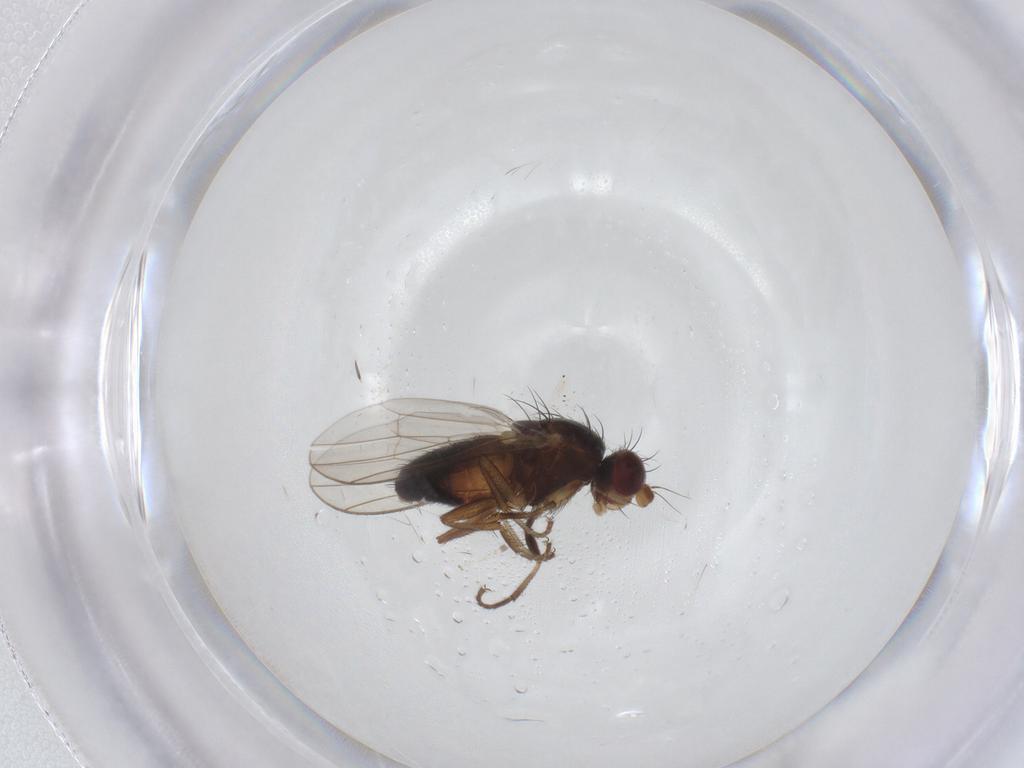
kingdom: Animalia
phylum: Arthropoda
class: Insecta
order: Diptera
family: Heleomyzidae
